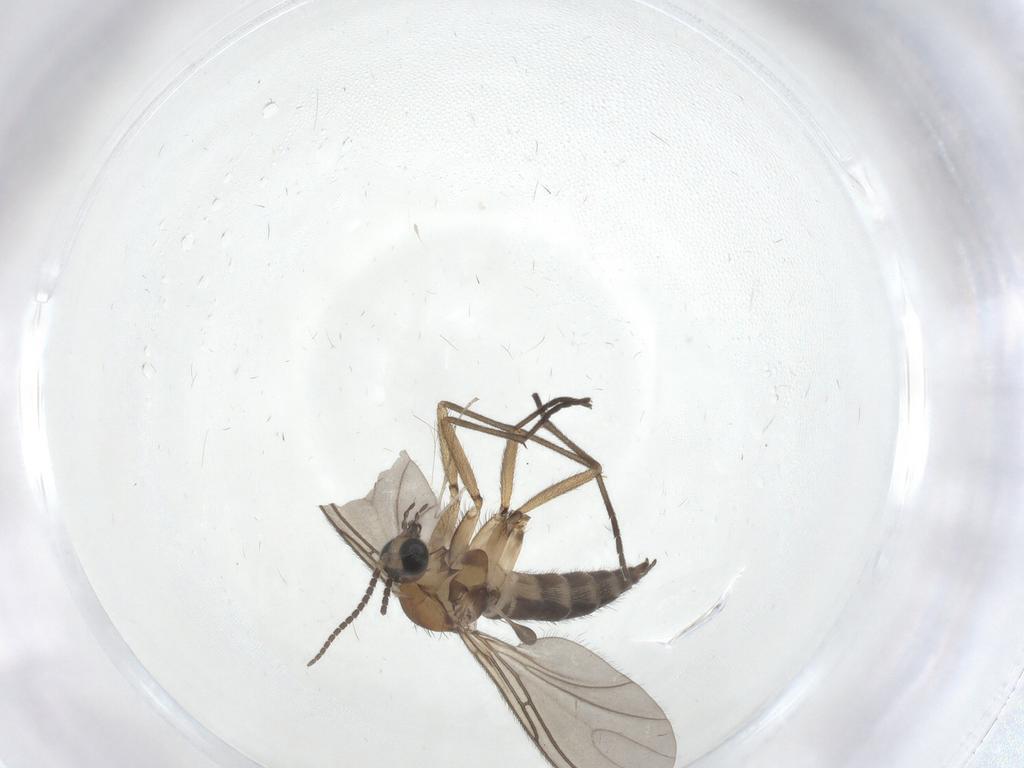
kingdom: Animalia
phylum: Arthropoda
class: Insecta
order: Diptera
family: Sciaridae
